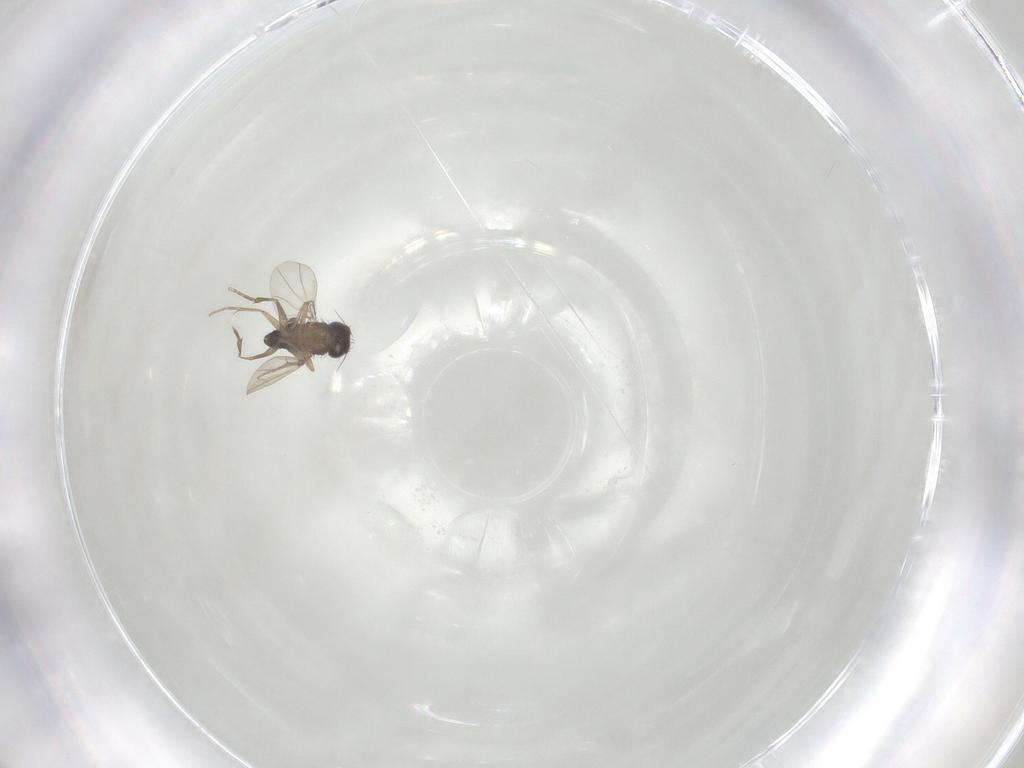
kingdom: Animalia
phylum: Arthropoda
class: Insecta
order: Diptera
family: Phoridae
